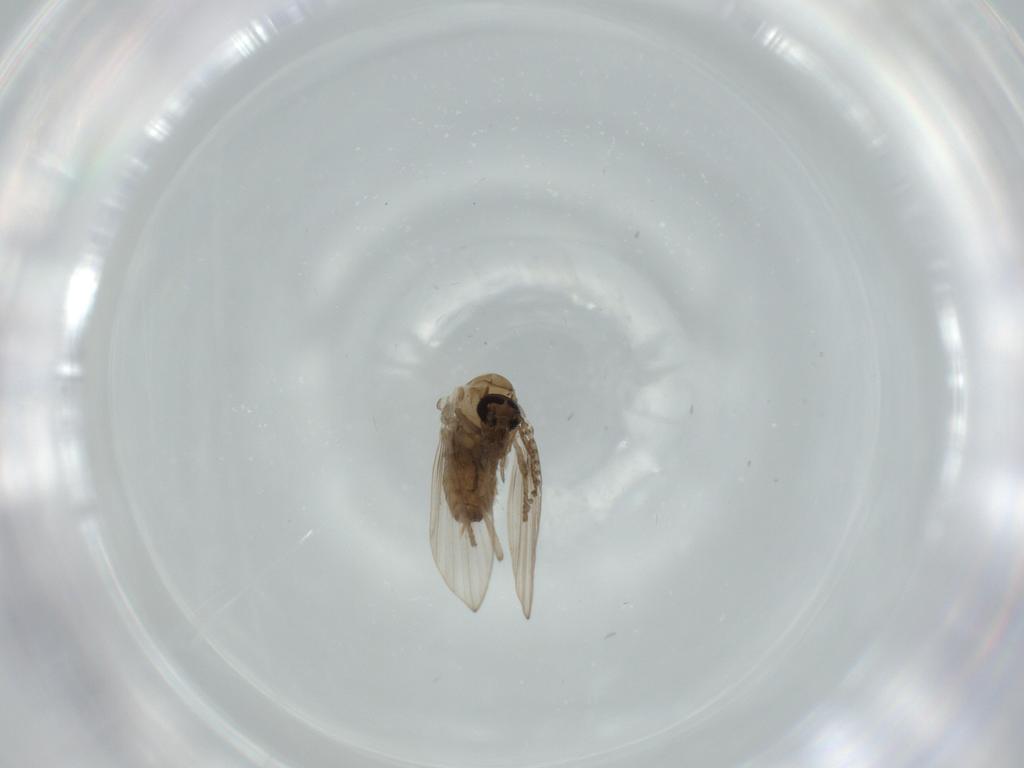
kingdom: Animalia
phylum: Arthropoda
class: Insecta
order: Diptera
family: Psychodidae
